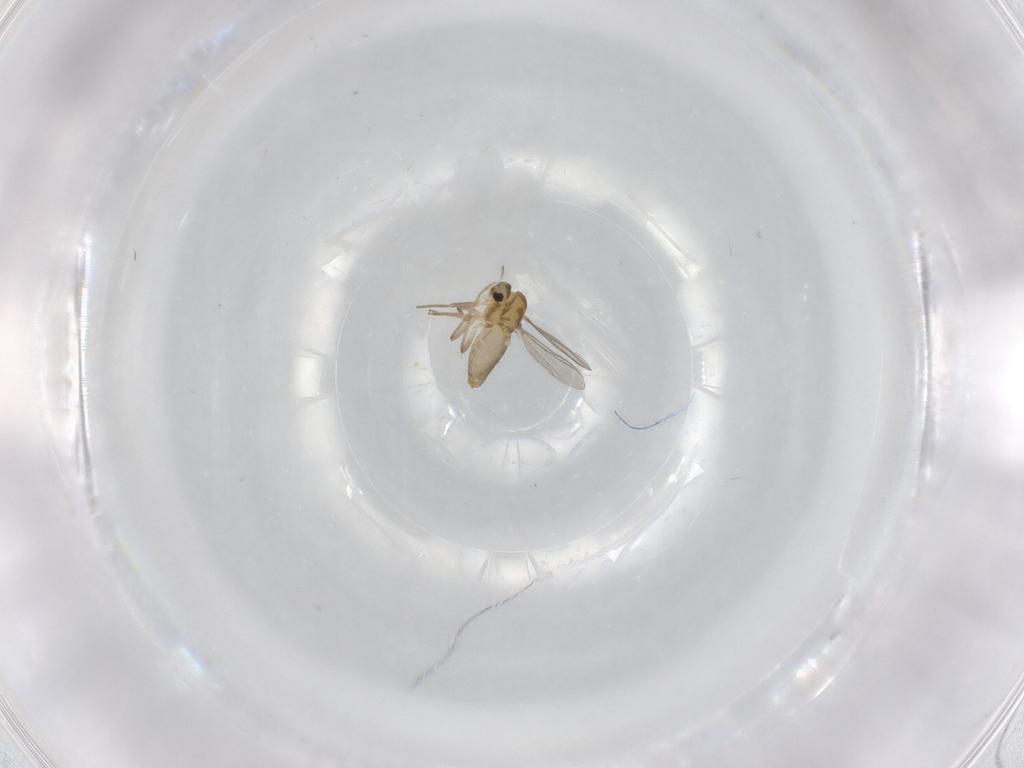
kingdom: Animalia
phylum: Arthropoda
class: Insecta
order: Diptera
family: Chironomidae
